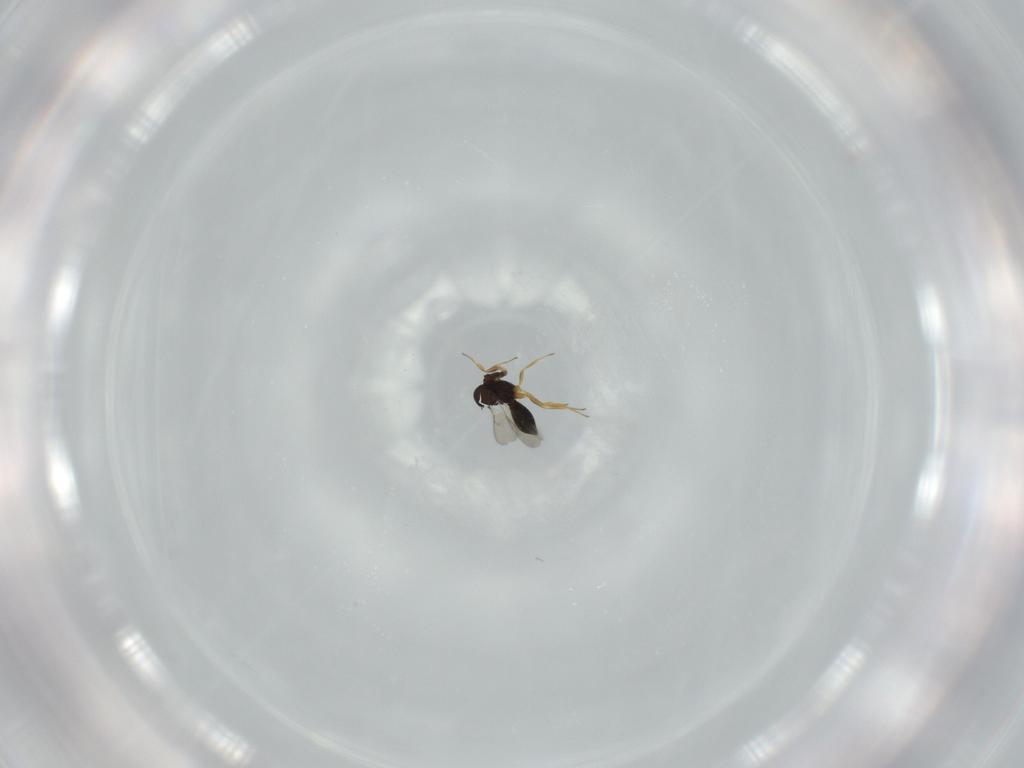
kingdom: Animalia
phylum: Arthropoda
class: Insecta
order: Hymenoptera
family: Scelionidae
